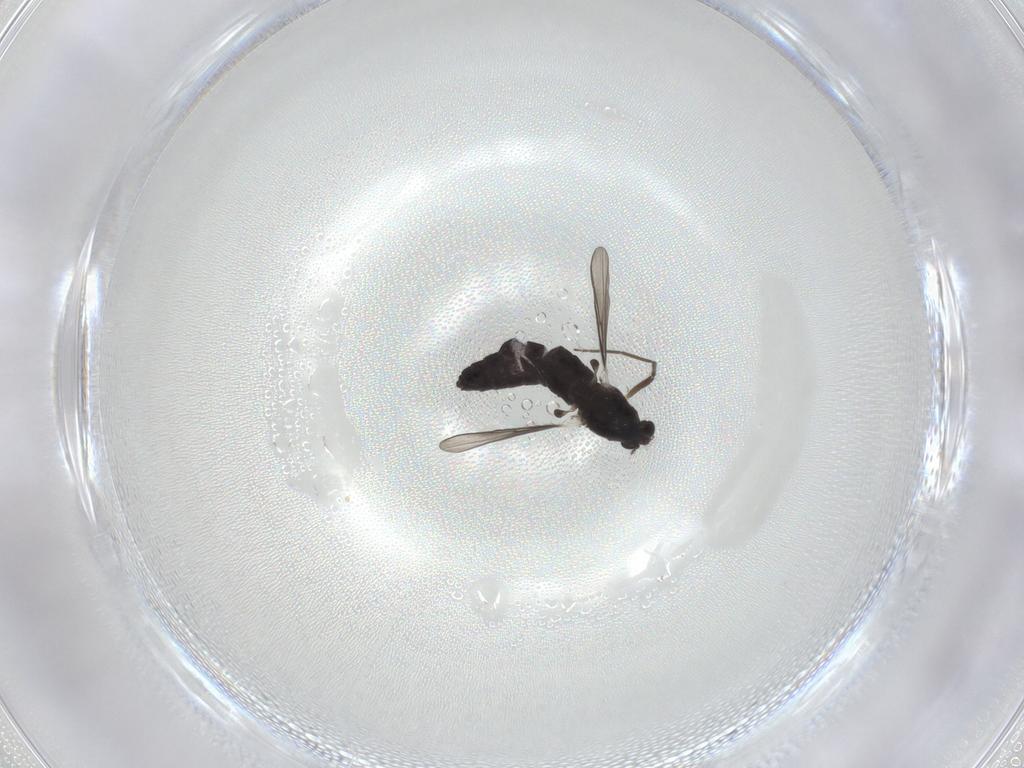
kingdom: Animalia
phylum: Arthropoda
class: Insecta
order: Diptera
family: Chironomidae
